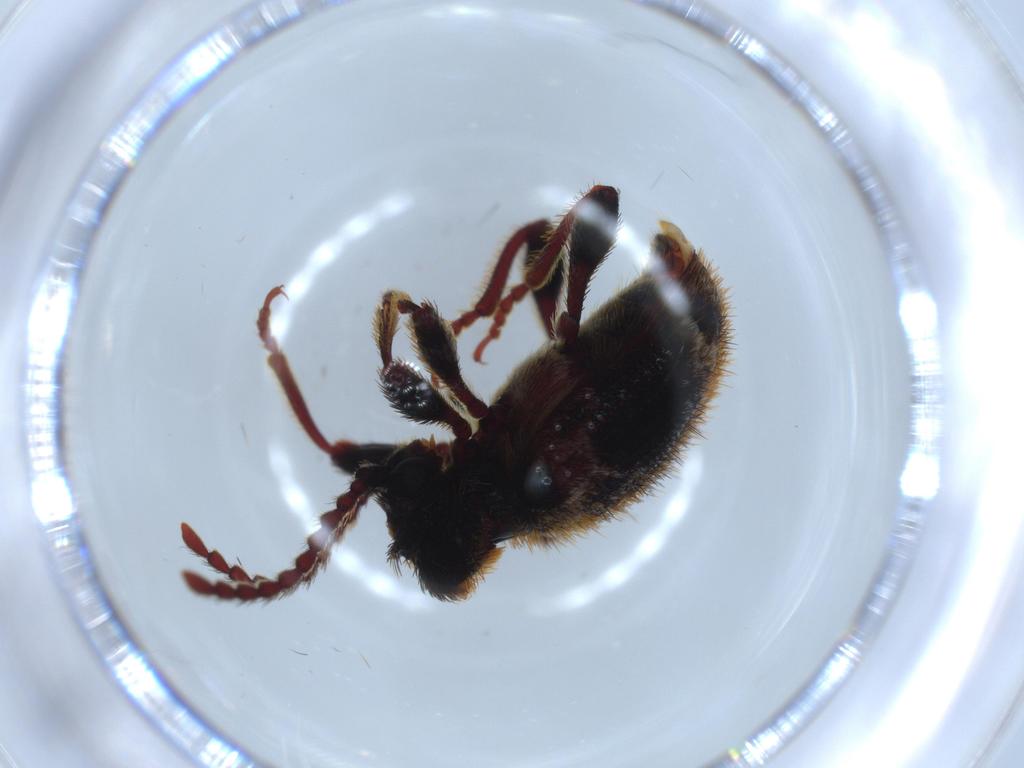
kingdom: Animalia
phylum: Arthropoda
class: Insecta
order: Coleoptera
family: Ptinidae
